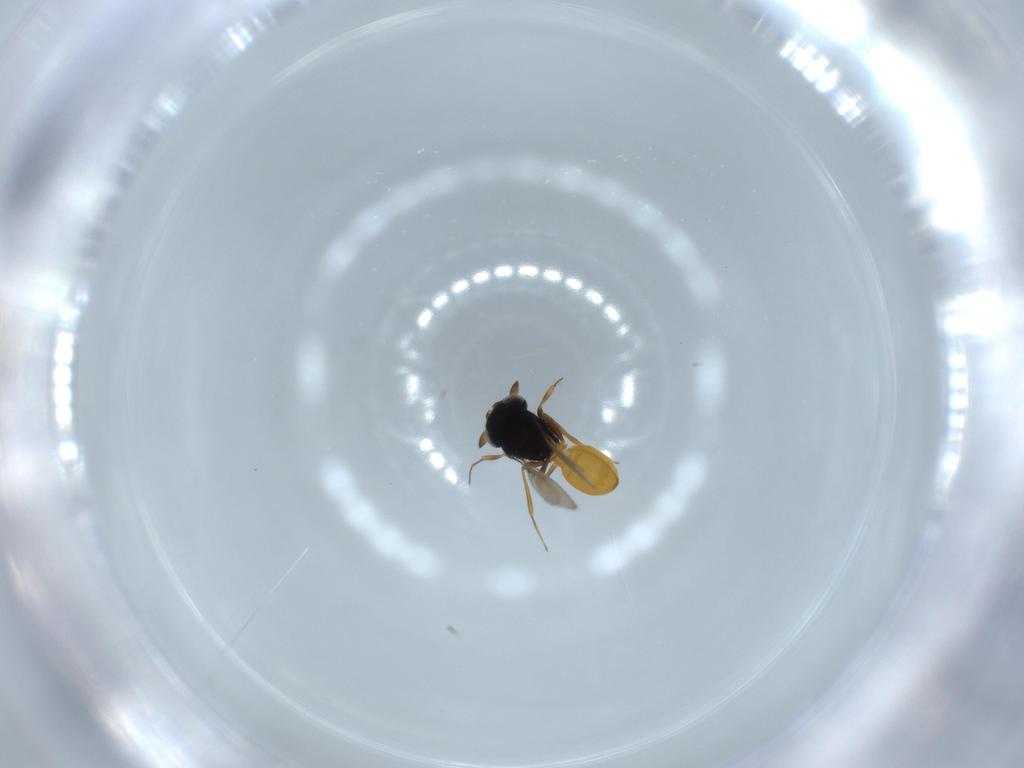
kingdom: Animalia
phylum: Arthropoda
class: Insecta
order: Hymenoptera
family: Scelionidae
